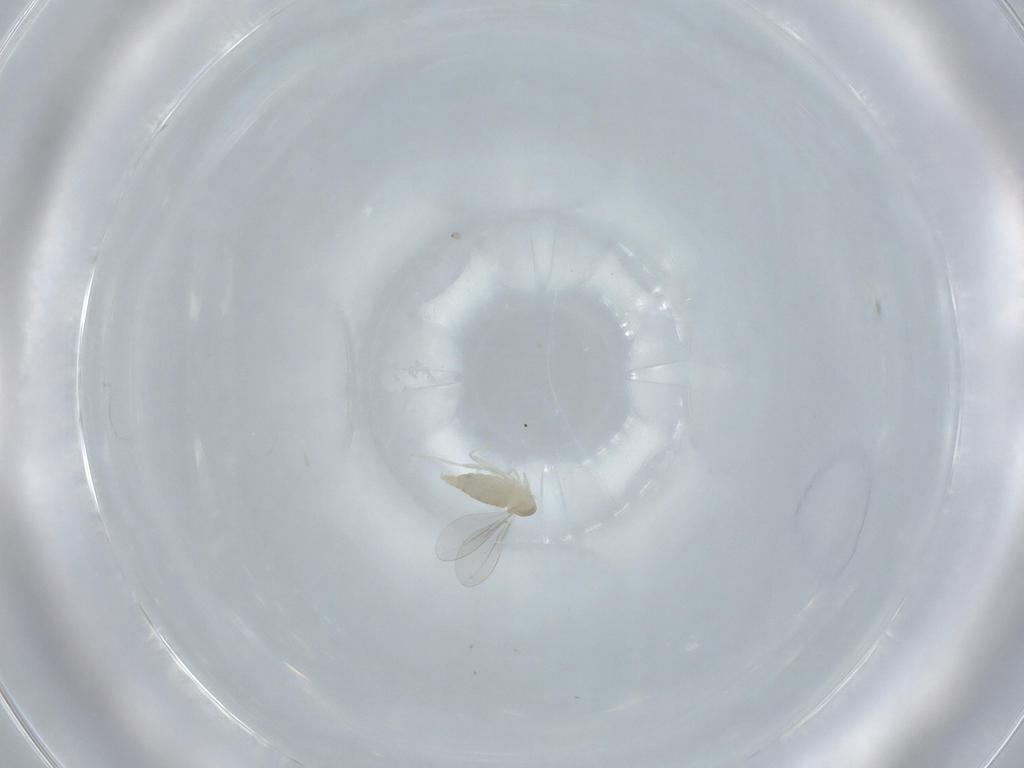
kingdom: Animalia
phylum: Arthropoda
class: Insecta
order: Diptera
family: Cecidomyiidae
